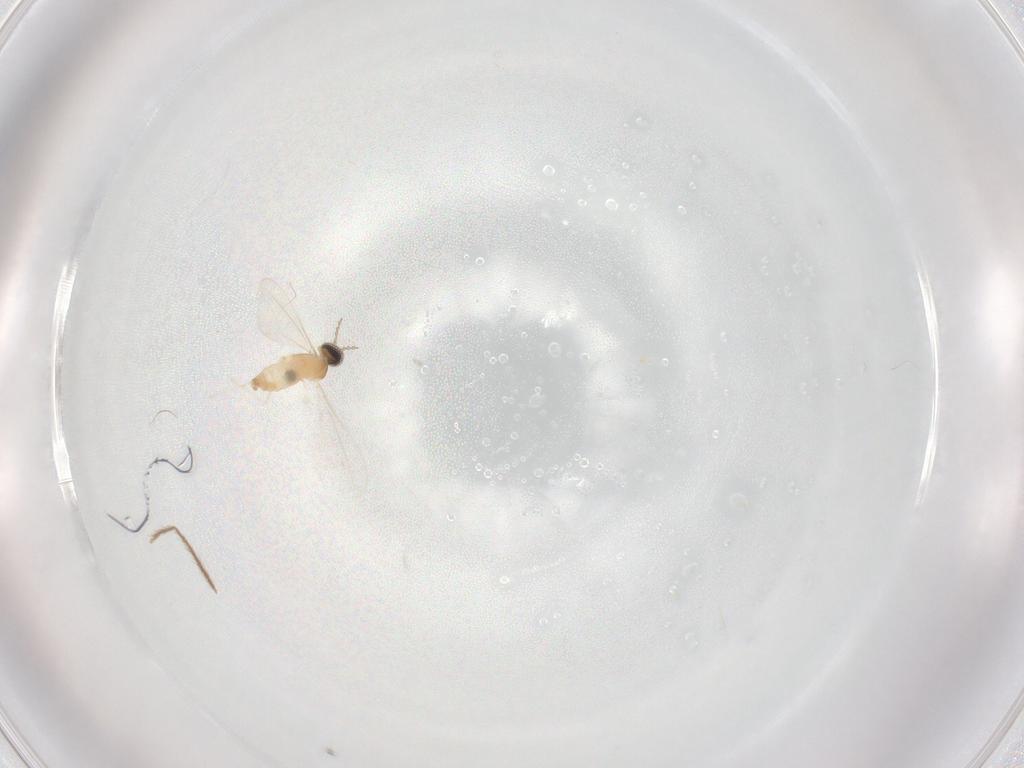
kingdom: Animalia
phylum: Arthropoda
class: Insecta
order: Diptera
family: Cecidomyiidae
